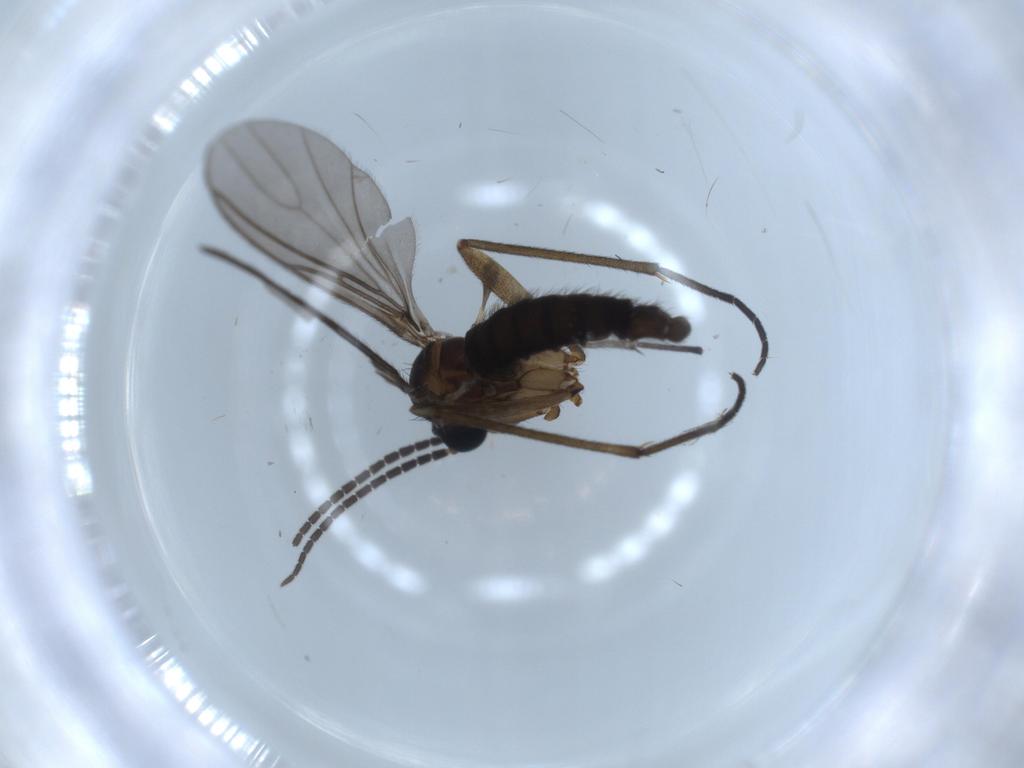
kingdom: Animalia
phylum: Arthropoda
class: Insecta
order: Diptera
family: Sciaridae
